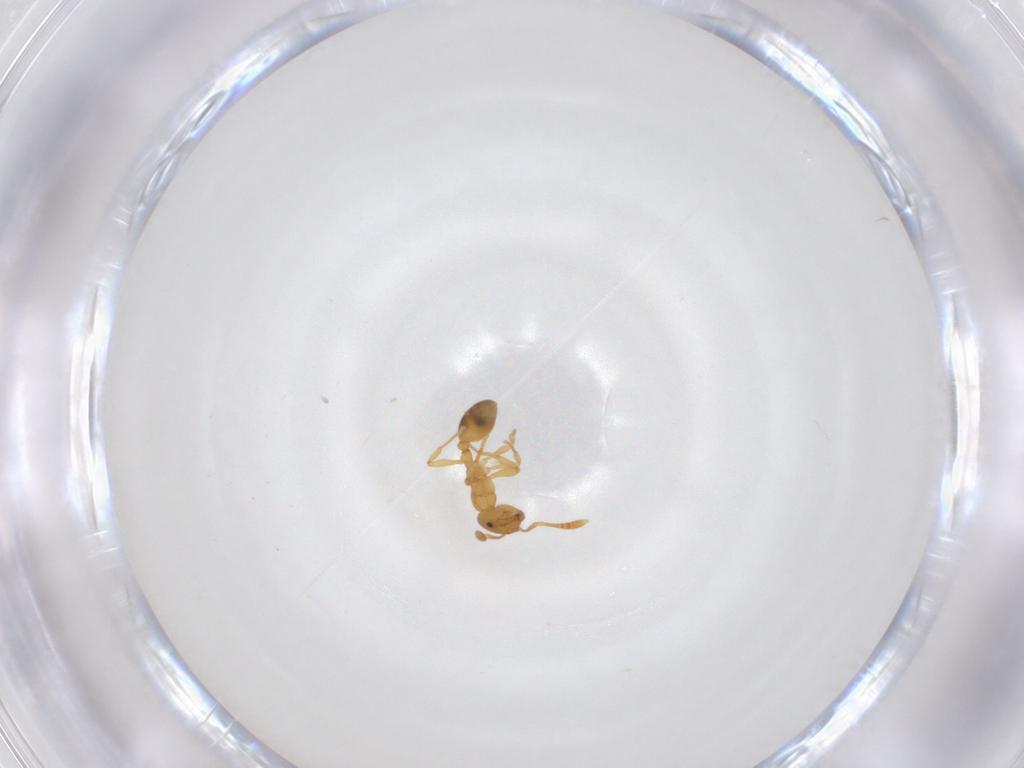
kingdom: Animalia
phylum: Arthropoda
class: Insecta
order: Hymenoptera
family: Formicidae
